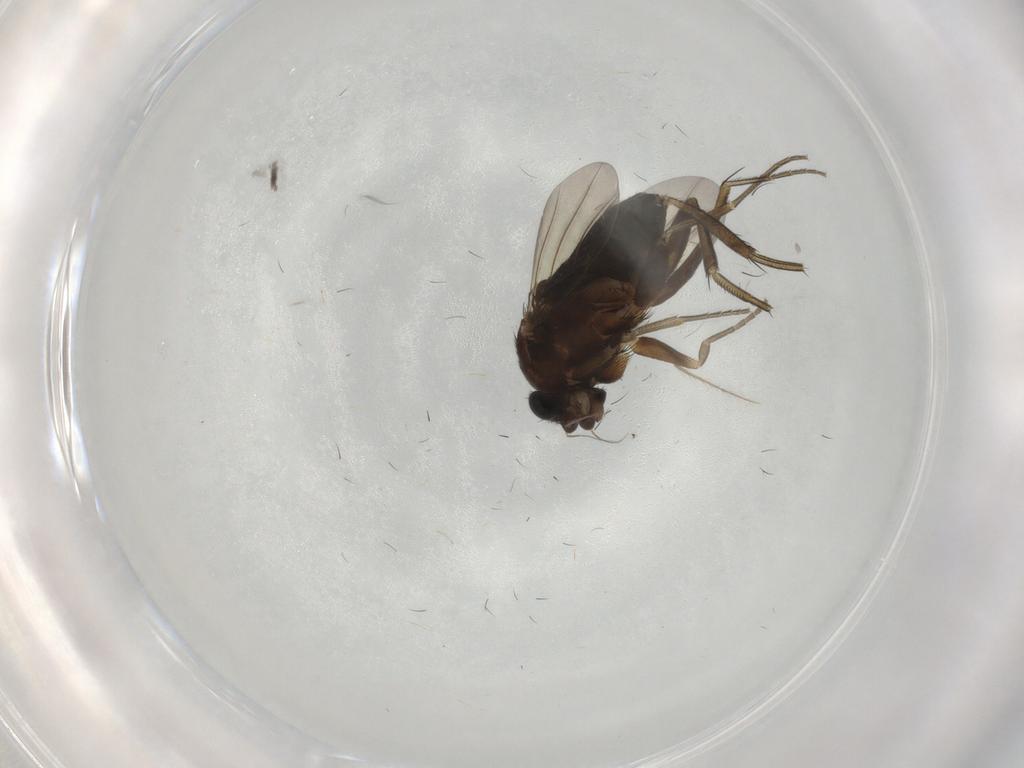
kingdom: Animalia
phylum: Arthropoda
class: Insecta
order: Diptera
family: Phoridae
